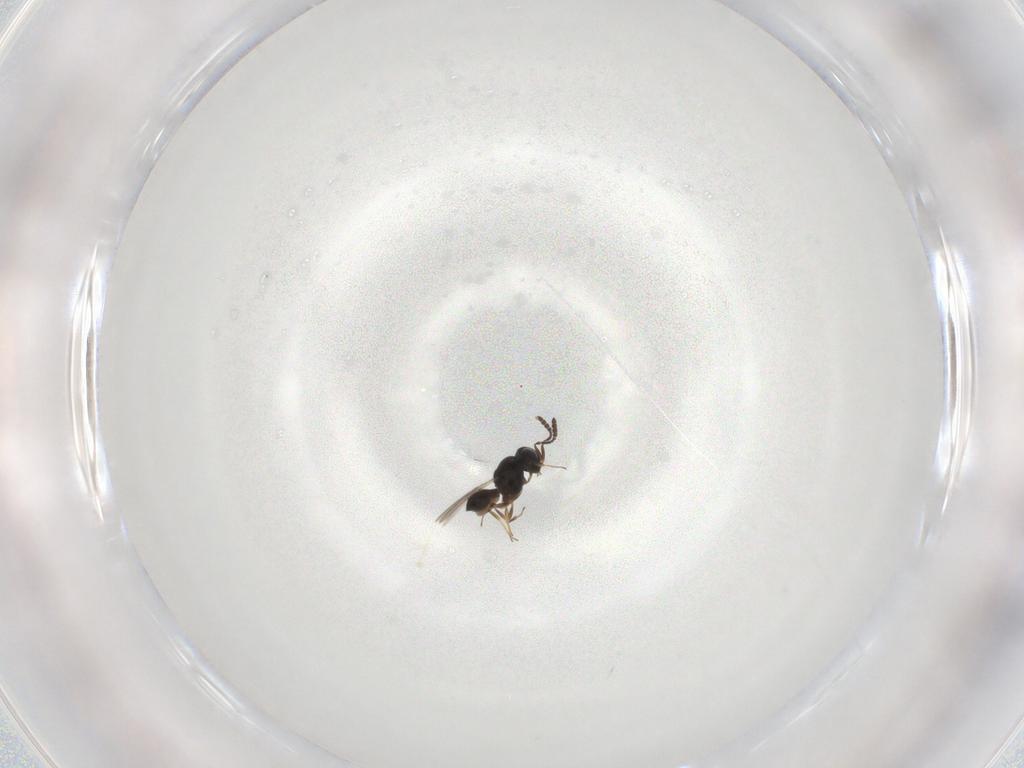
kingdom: Animalia
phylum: Arthropoda
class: Insecta
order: Hymenoptera
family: Scelionidae
